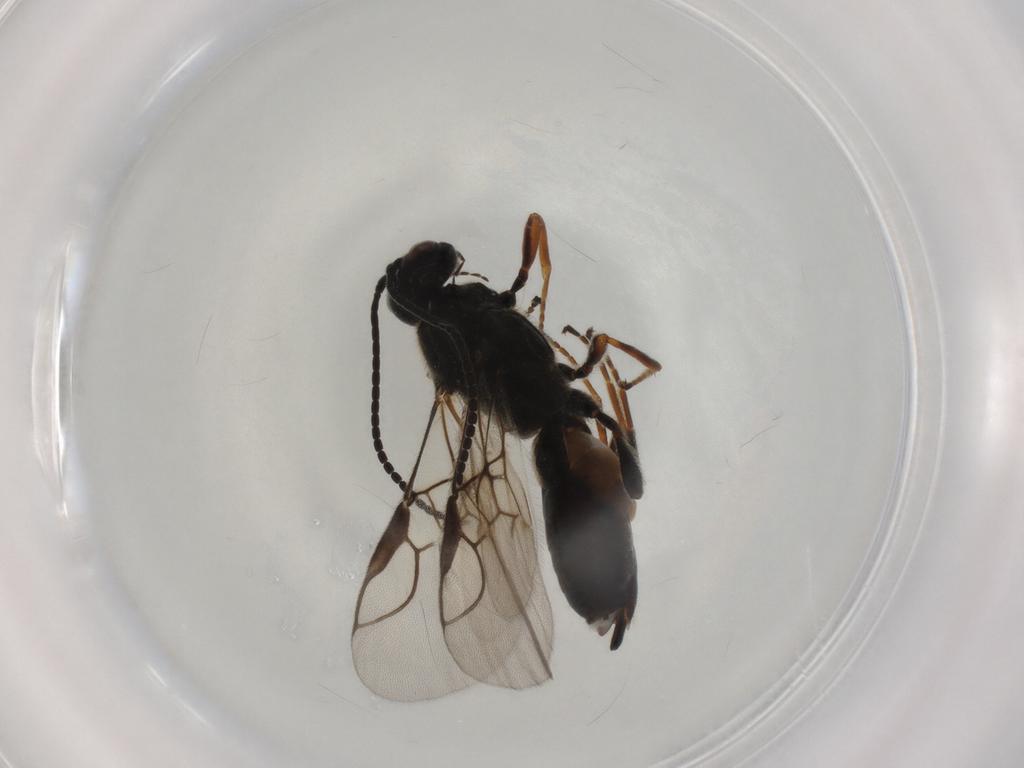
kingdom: Animalia
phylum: Arthropoda
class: Insecta
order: Hymenoptera
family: Braconidae
